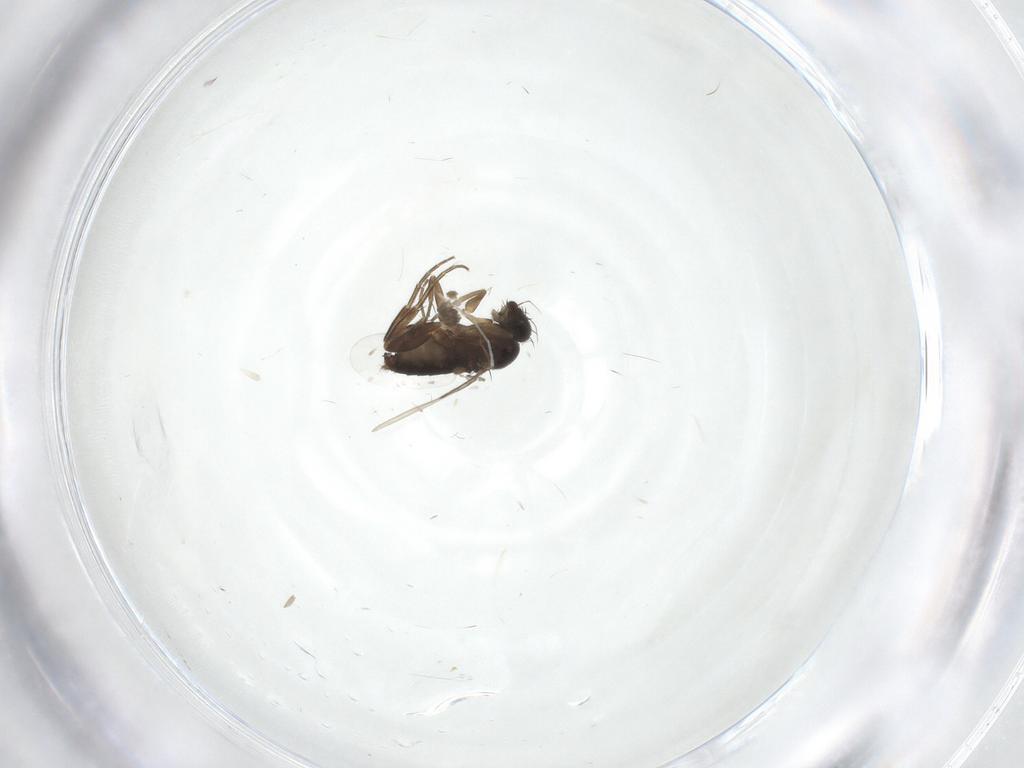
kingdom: Animalia
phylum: Arthropoda
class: Insecta
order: Diptera
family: Phoridae
